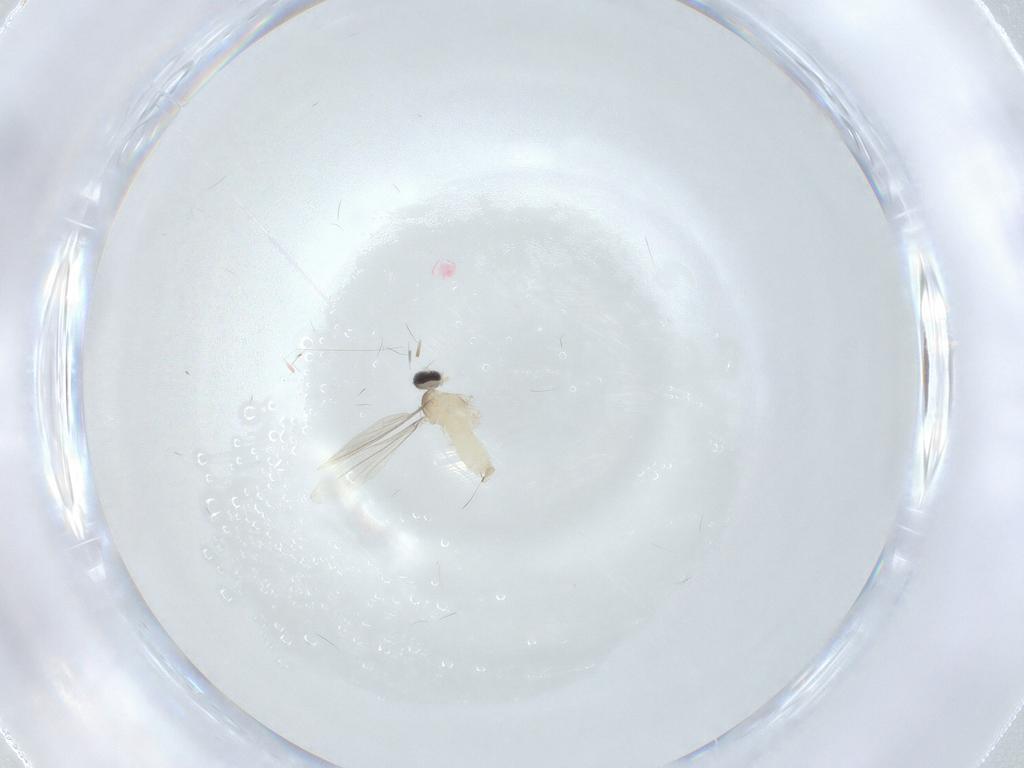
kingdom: Animalia
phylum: Arthropoda
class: Insecta
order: Diptera
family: Cecidomyiidae
